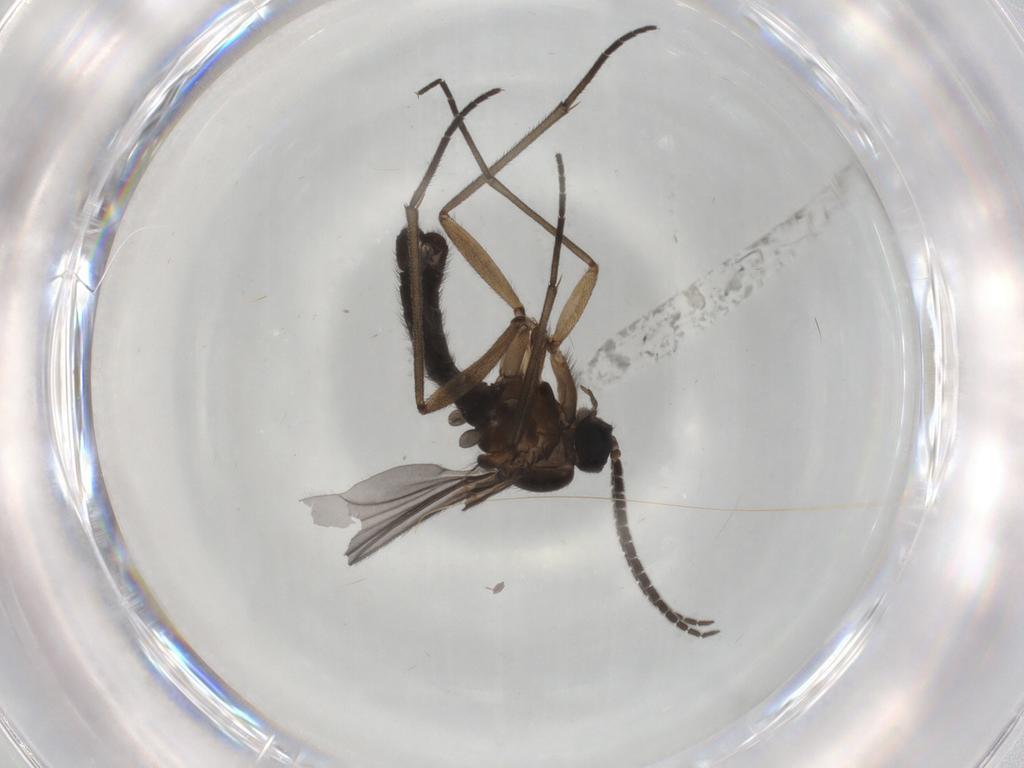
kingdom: Animalia
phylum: Arthropoda
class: Insecta
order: Diptera
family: Sciaridae
